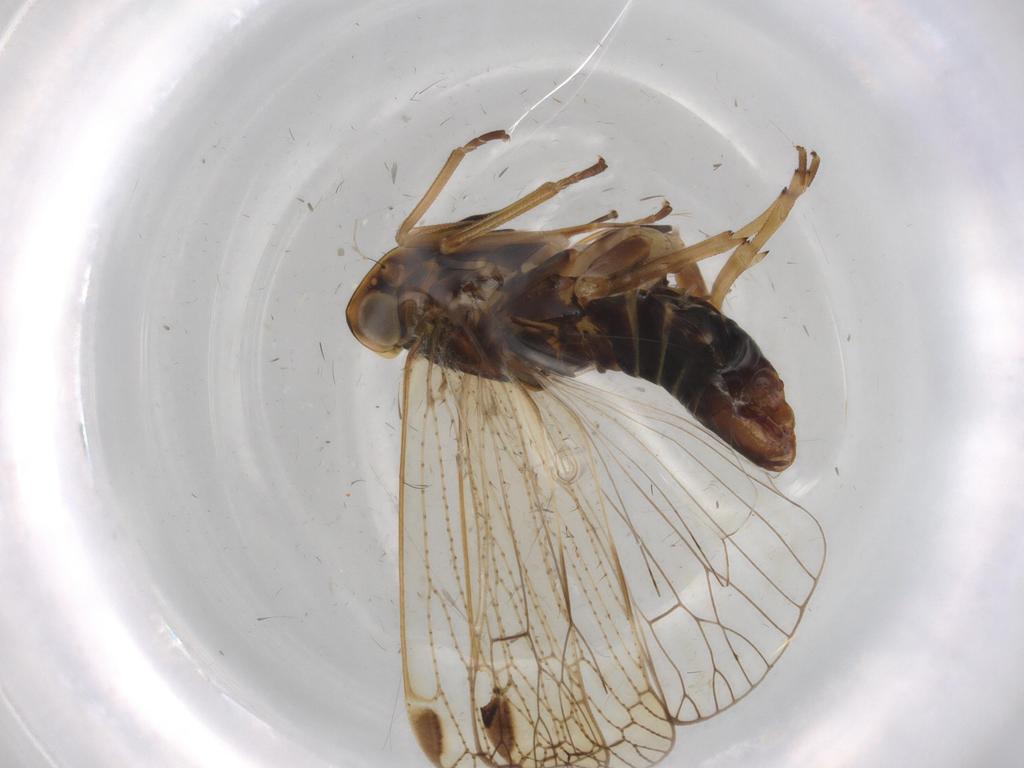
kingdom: Animalia
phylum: Arthropoda
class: Insecta
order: Hemiptera
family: Cixiidae
